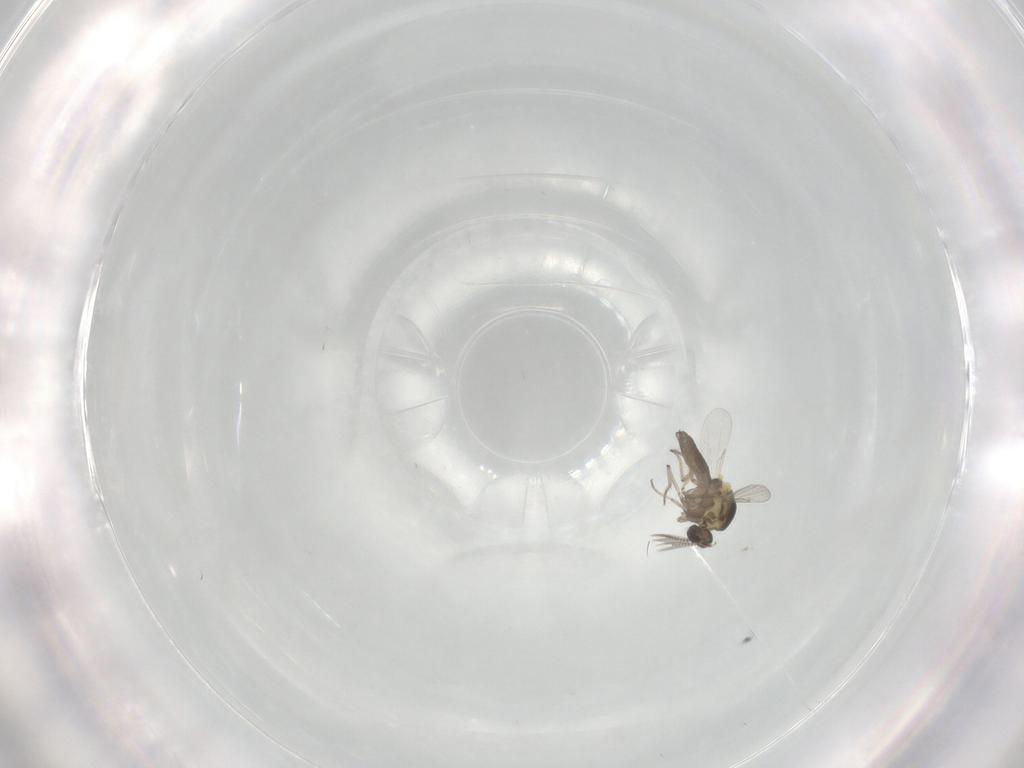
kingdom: Animalia
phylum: Arthropoda
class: Insecta
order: Diptera
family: Ceratopogonidae
